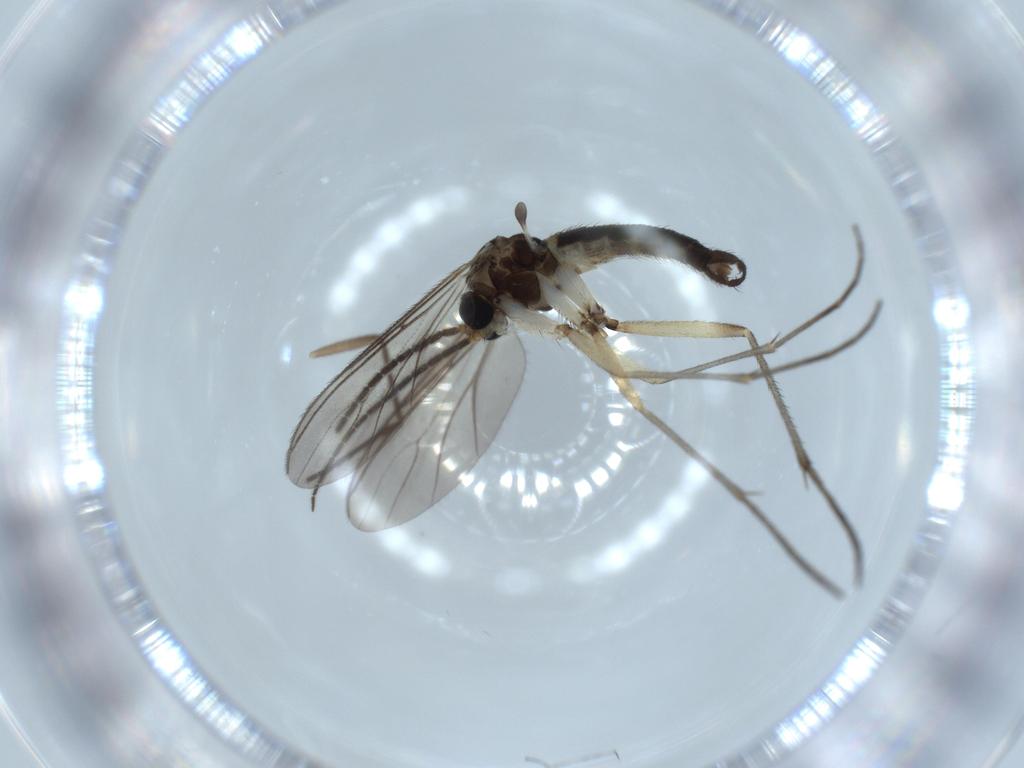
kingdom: Animalia
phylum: Arthropoda
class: Insecta
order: Diptera
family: Sciaridae
